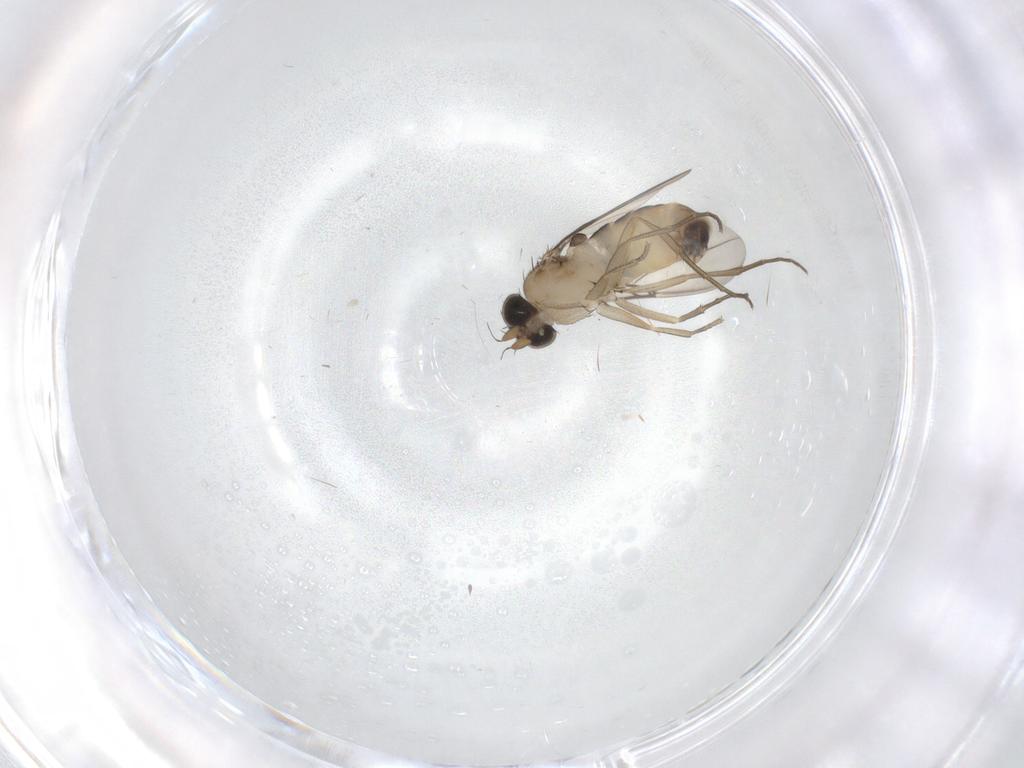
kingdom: Animalia
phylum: Arthropoda
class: Insecta
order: Diptera
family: Phoridae
